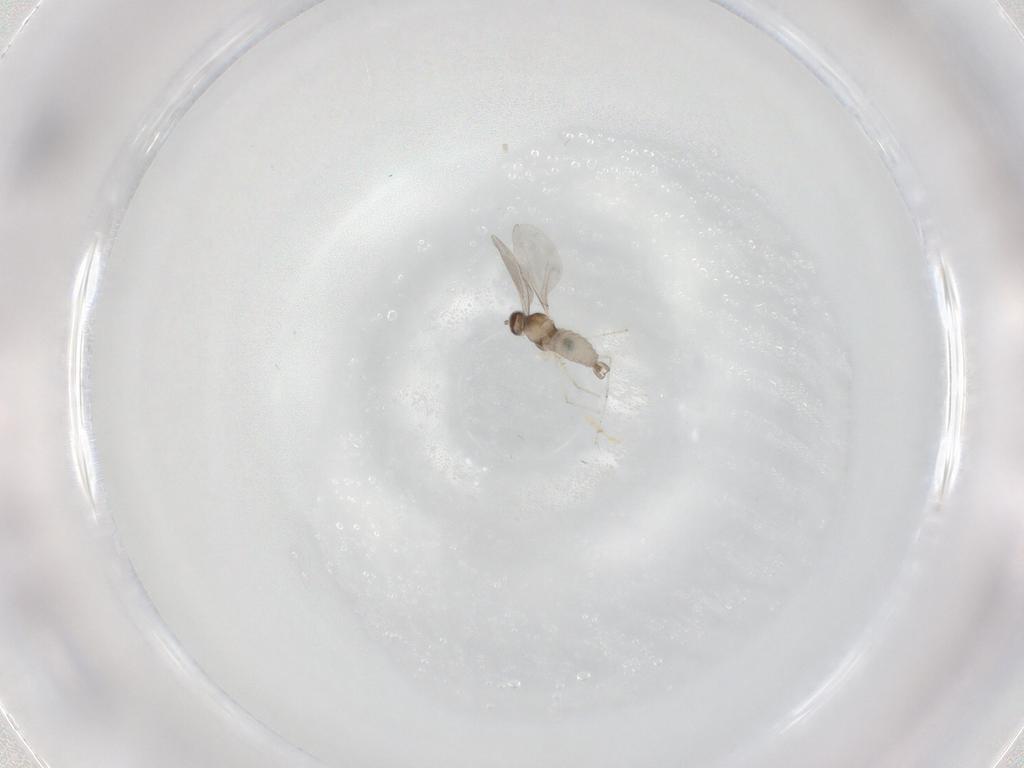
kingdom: Animalia
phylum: Arthropoda
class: Insecta
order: Diptera
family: Cecidomyiidae
